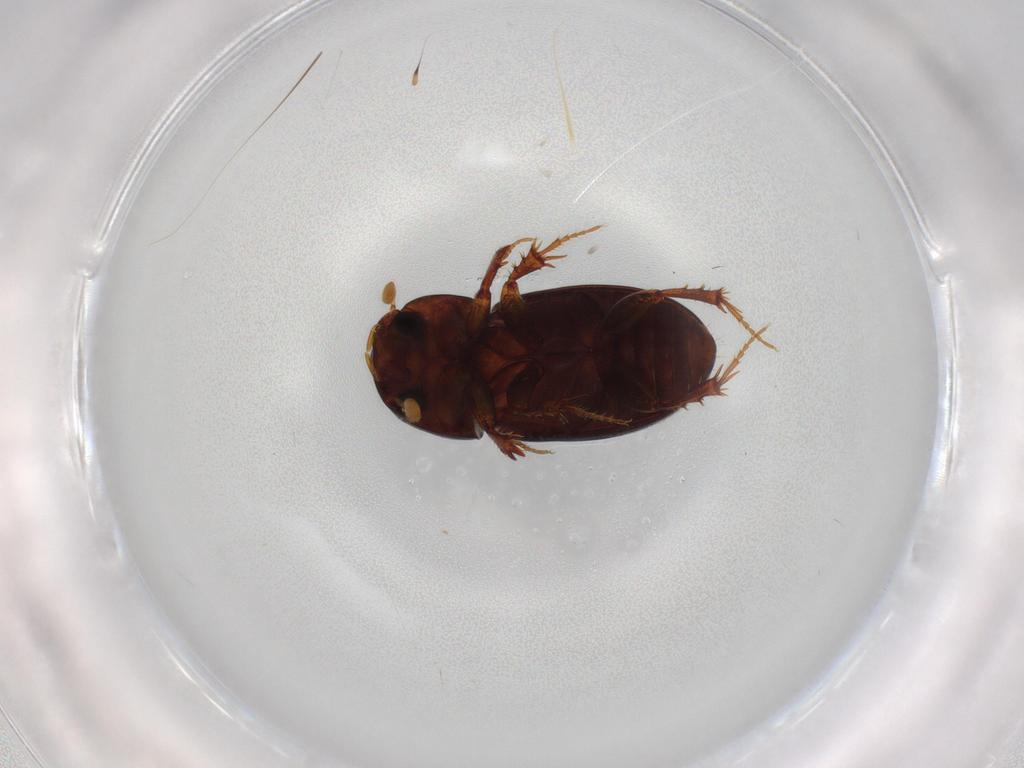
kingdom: Animalia
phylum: Arthropoda
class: Insecta
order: Coleoptera
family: Scarabaeidae
